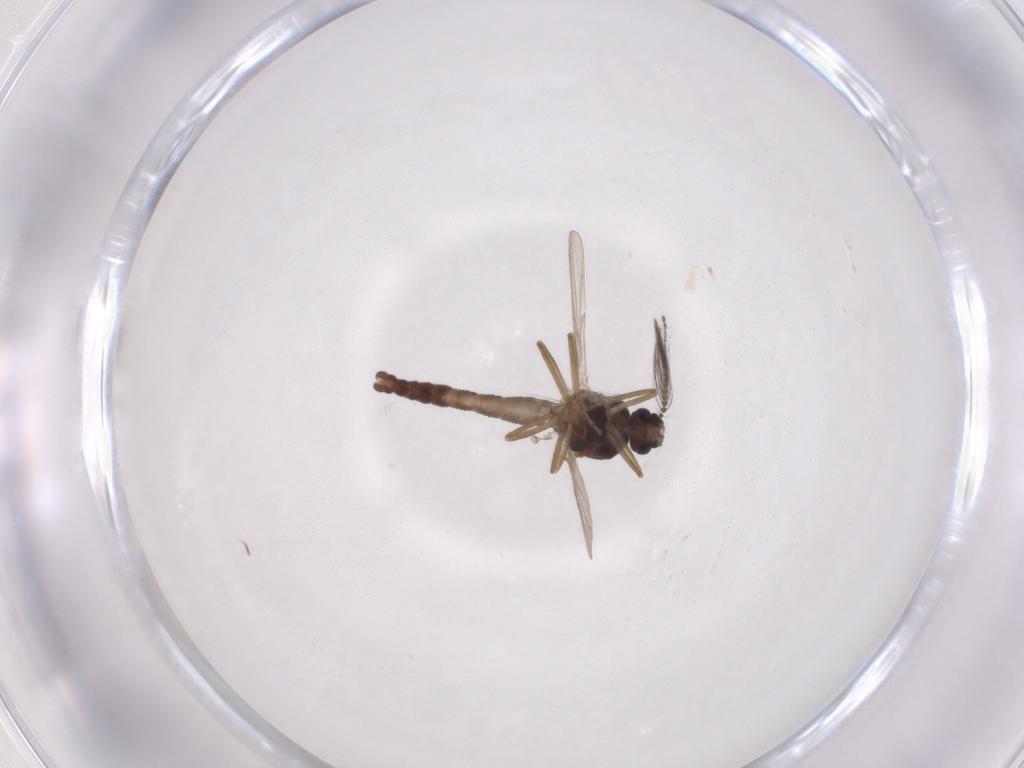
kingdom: Animalia
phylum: Arthropoda
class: Insecta
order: Diptera
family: Ceratopogonidae
